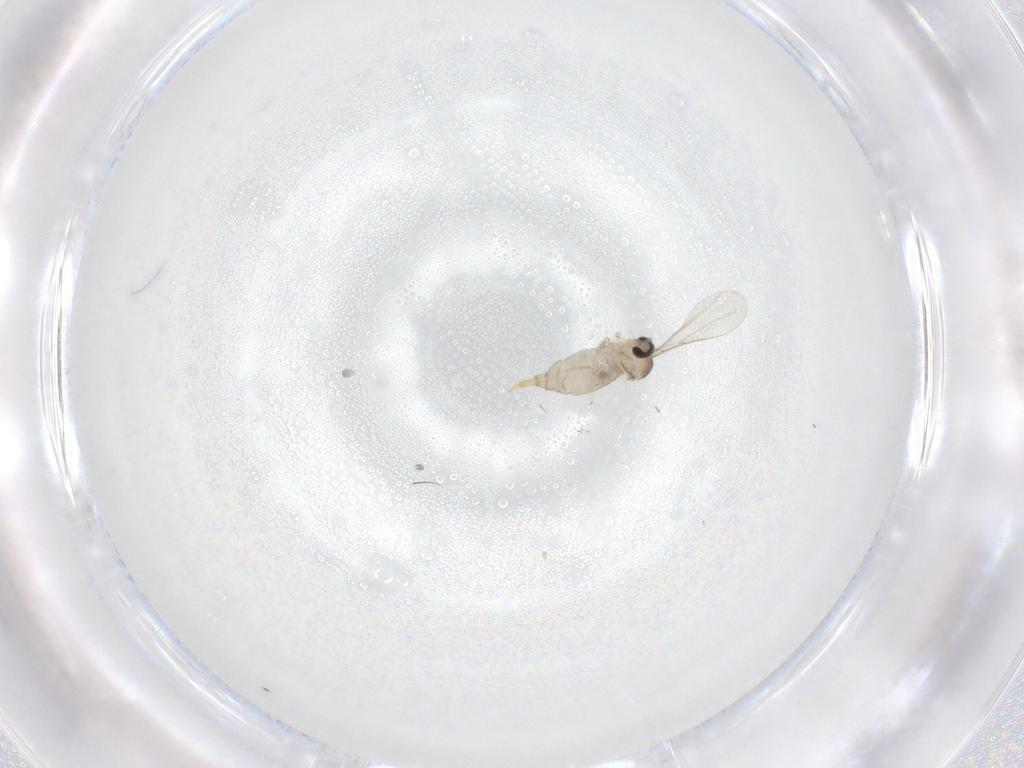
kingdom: Animalia
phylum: Arthropoda
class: Insecta
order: Diptera
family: Cecidomyiidae
